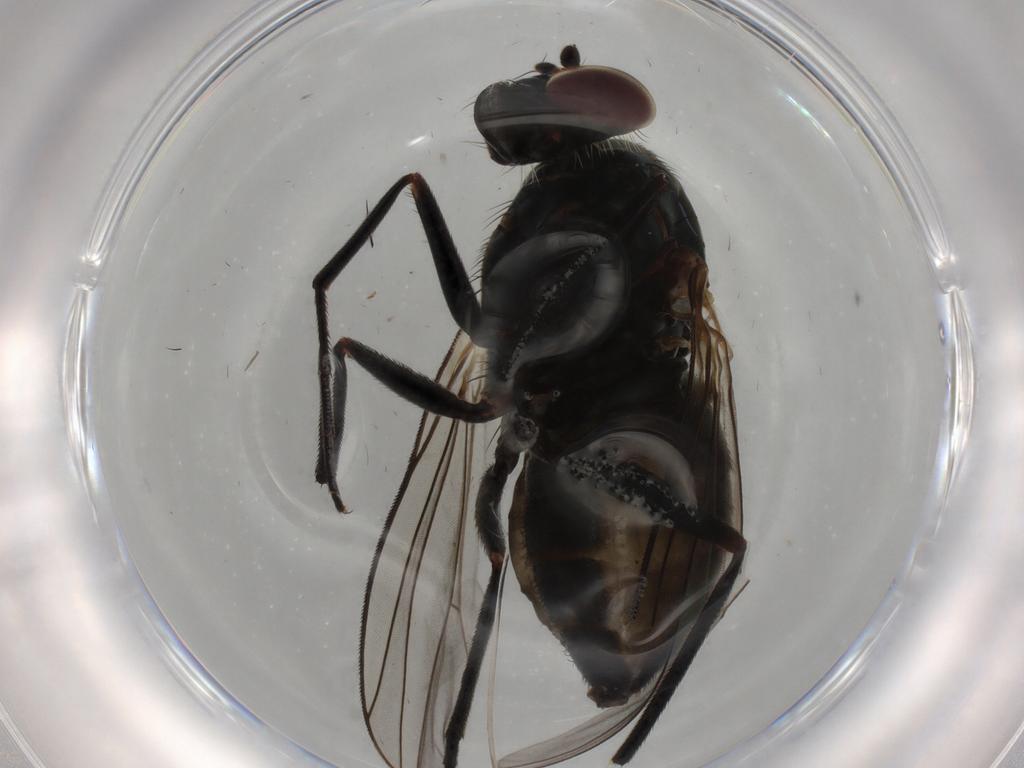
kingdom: Animalia
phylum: Arthropoda
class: Insecta
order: Diptera
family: Dolichopodidae
